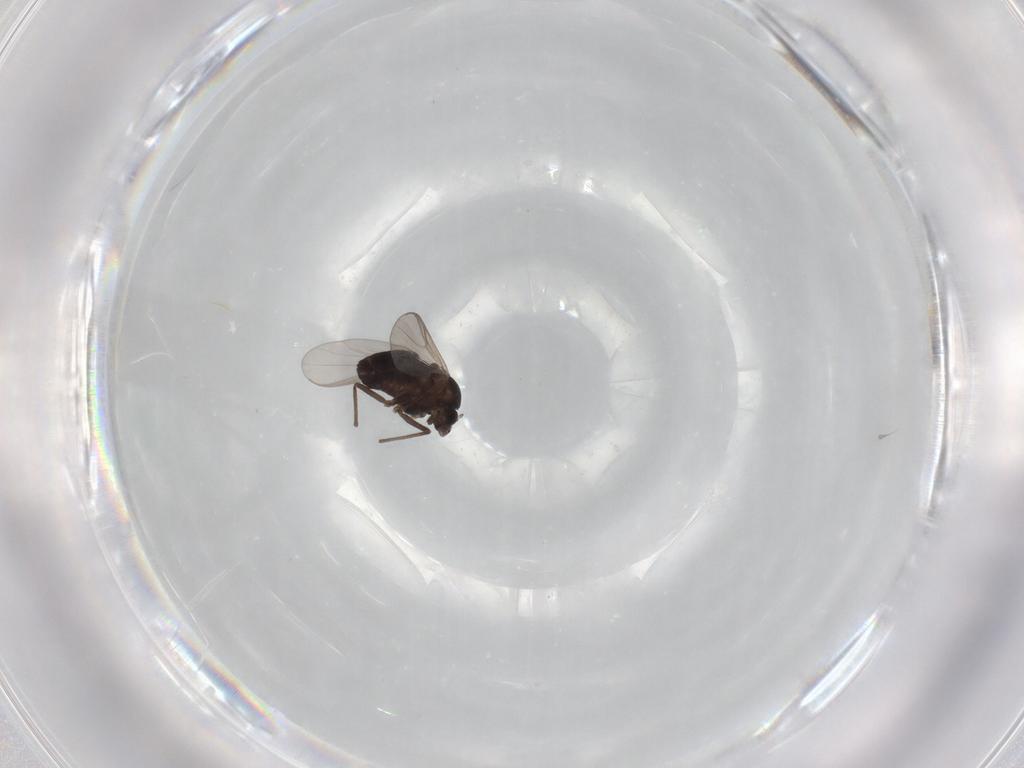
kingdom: Animalia
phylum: Arthropoda
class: Insecta
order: Diptera
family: Chironomidae
